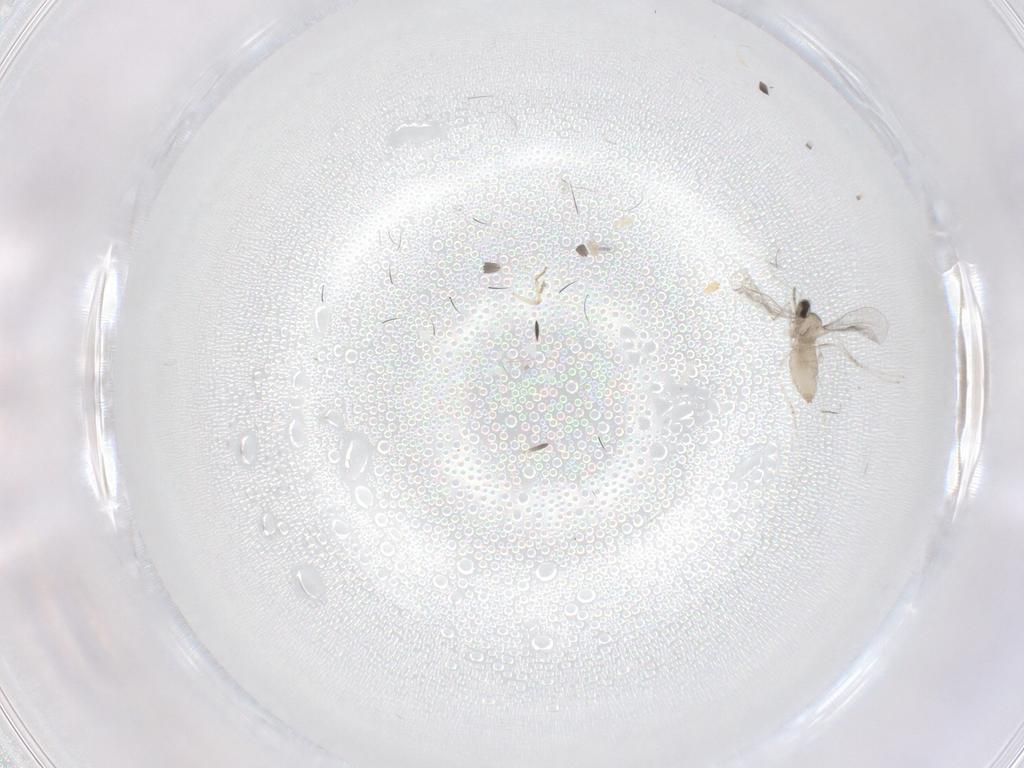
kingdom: Animalia
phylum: Arthropoda
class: Insecta
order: Diptera
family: Ceratopogonidae
